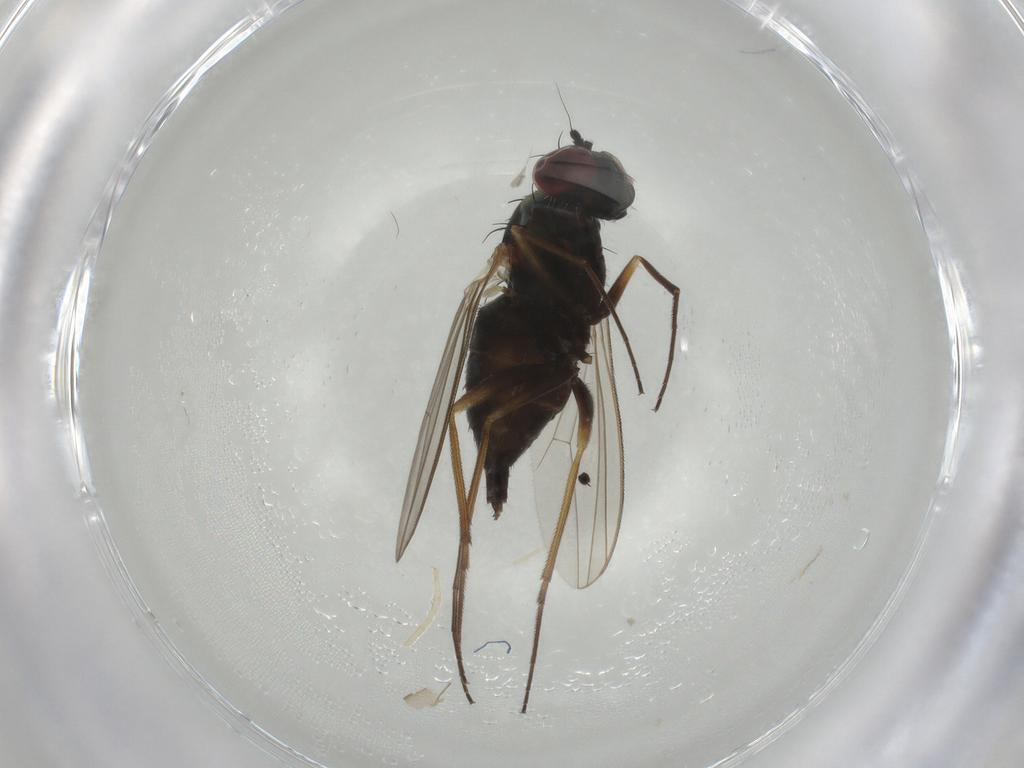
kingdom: Animalia
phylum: Arthropoda
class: Insecta
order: Diptera
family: Dolichopodidae
